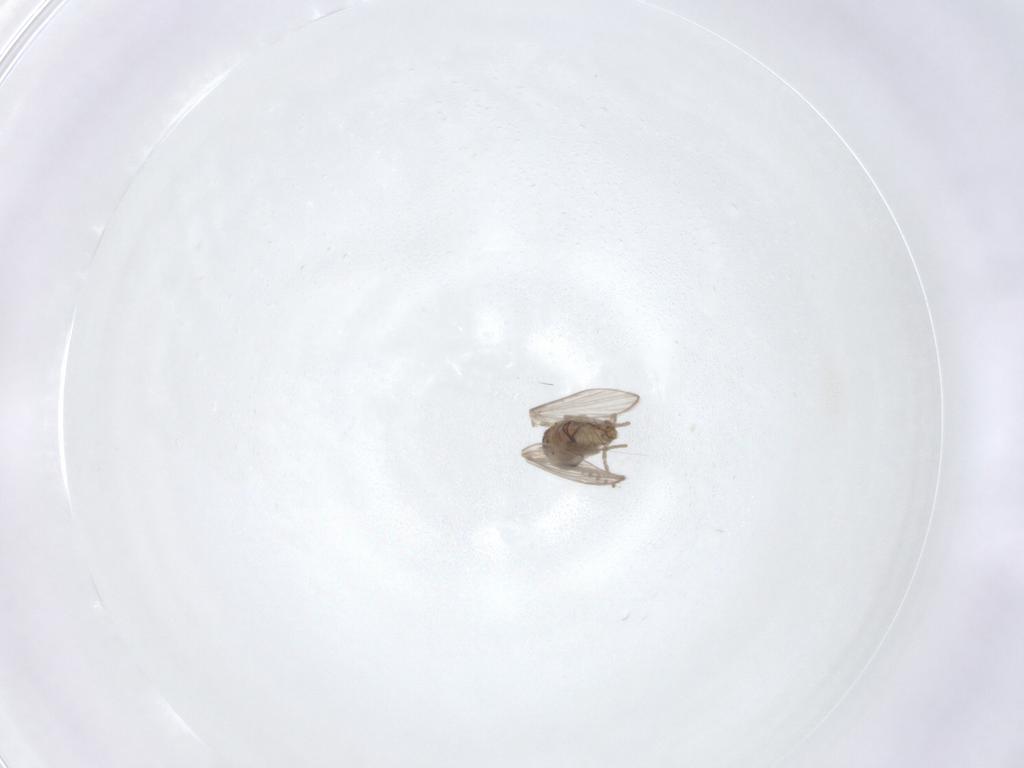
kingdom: Animalia
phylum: Arthropoda
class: Insecta
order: Diptera
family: Psychodidae
